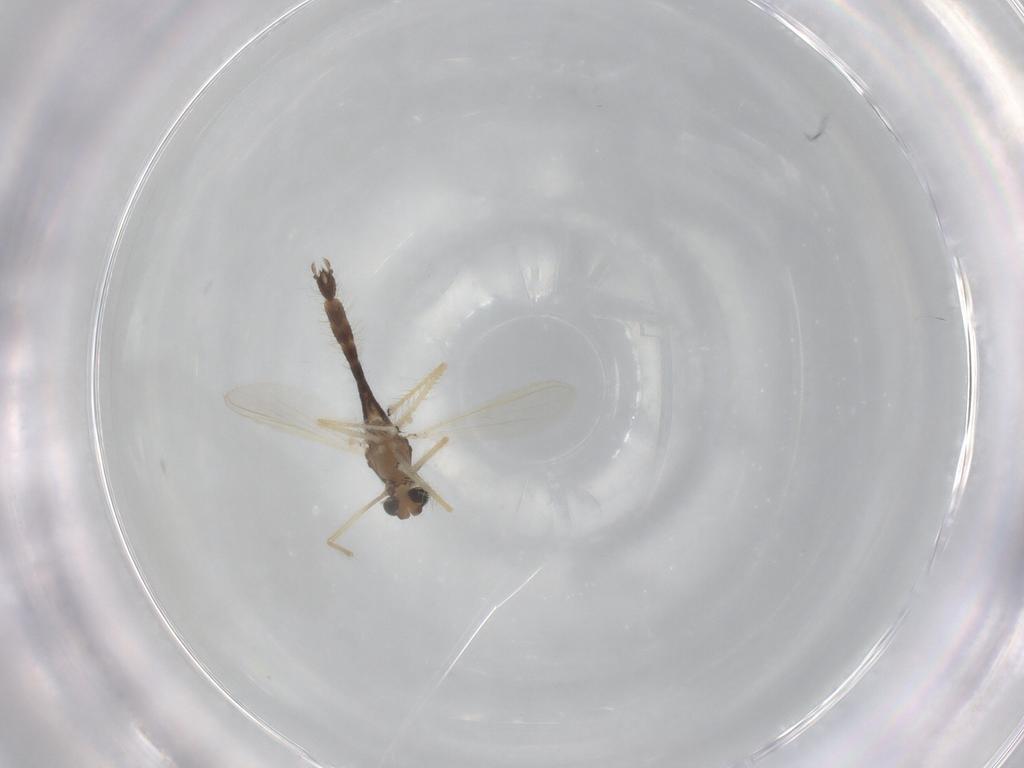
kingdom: Animalia
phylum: Arthropoda
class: Insecta
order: Diptera
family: Chironomidae
